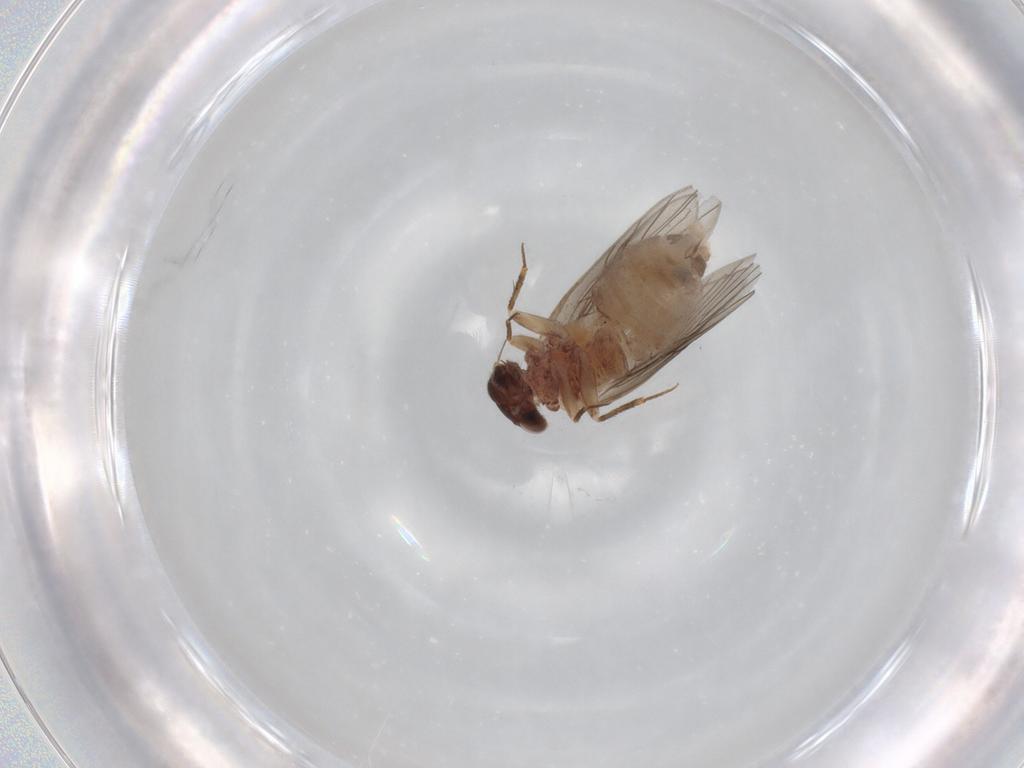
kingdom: Animalia
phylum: Arthropoda
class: Insecta
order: Psocodea
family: Lepidopsocidae
